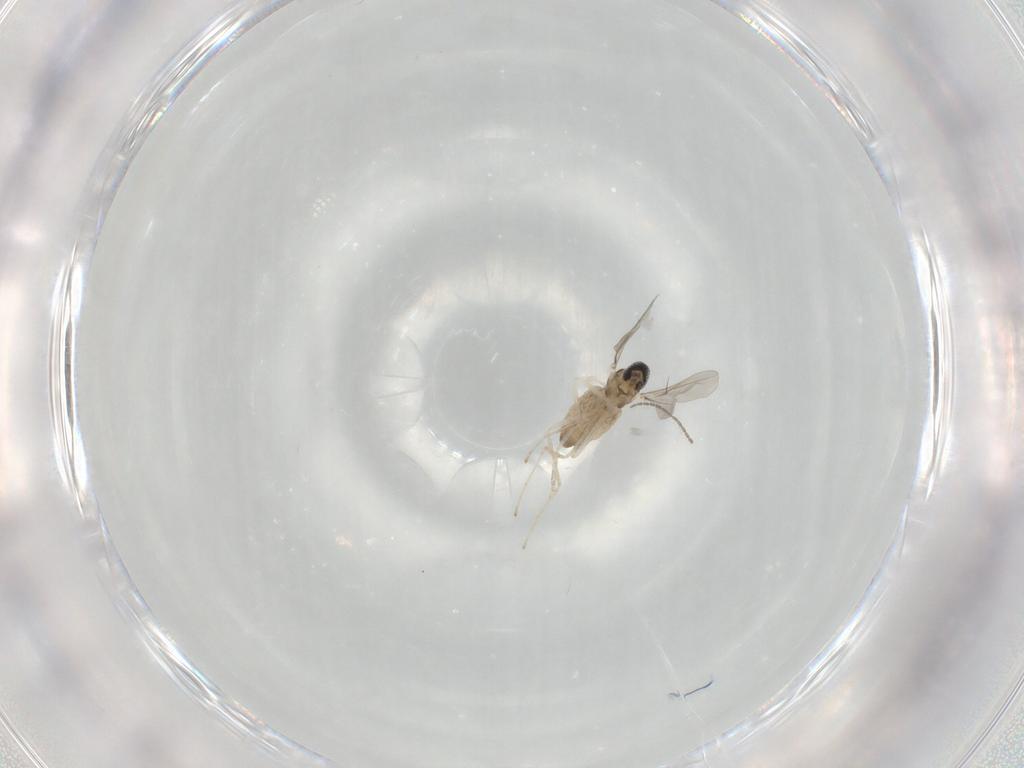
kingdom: Animalia
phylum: Arthropoda
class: Insecta
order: Diptera
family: Cecidomyiidae
